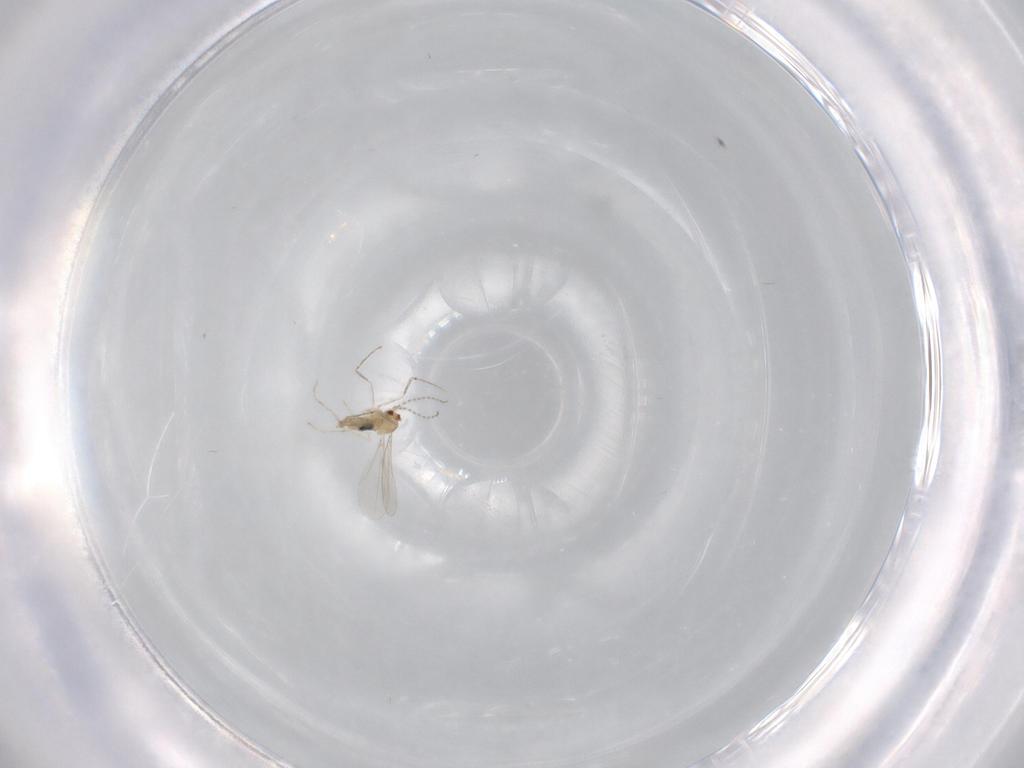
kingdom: Animalia
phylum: Arthropoda
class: Insecta
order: Diptera
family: Cecidomyiidae
